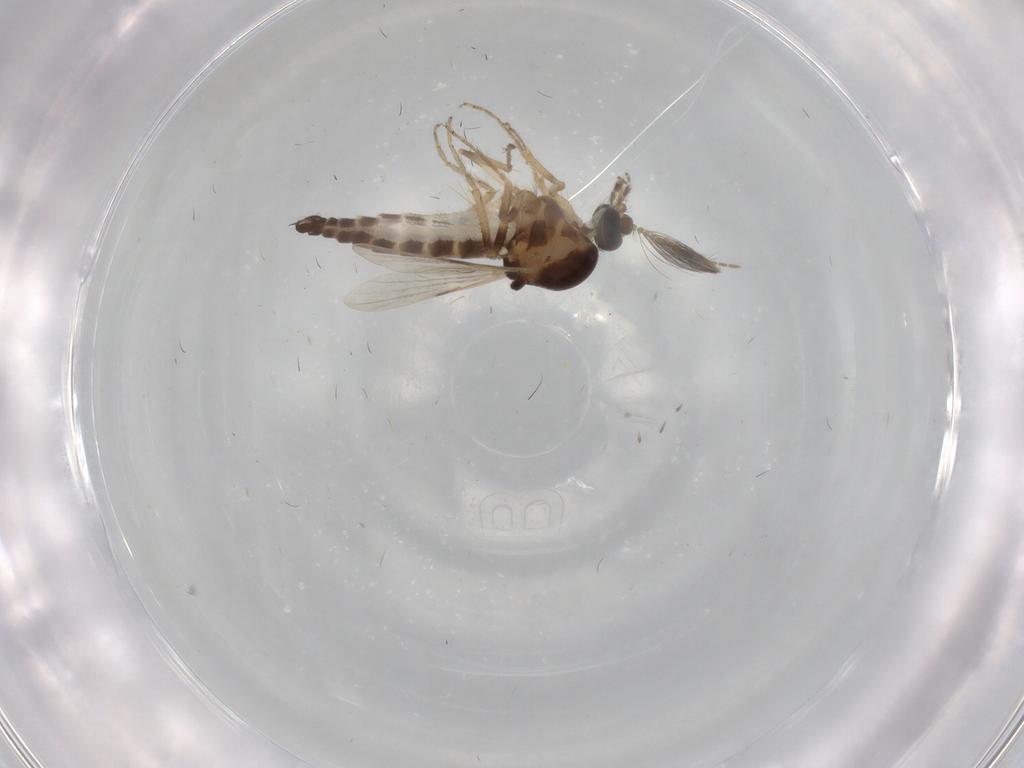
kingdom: Animalia
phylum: Arthropoda
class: Insecta
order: Diptera
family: Ceratopogonidae
